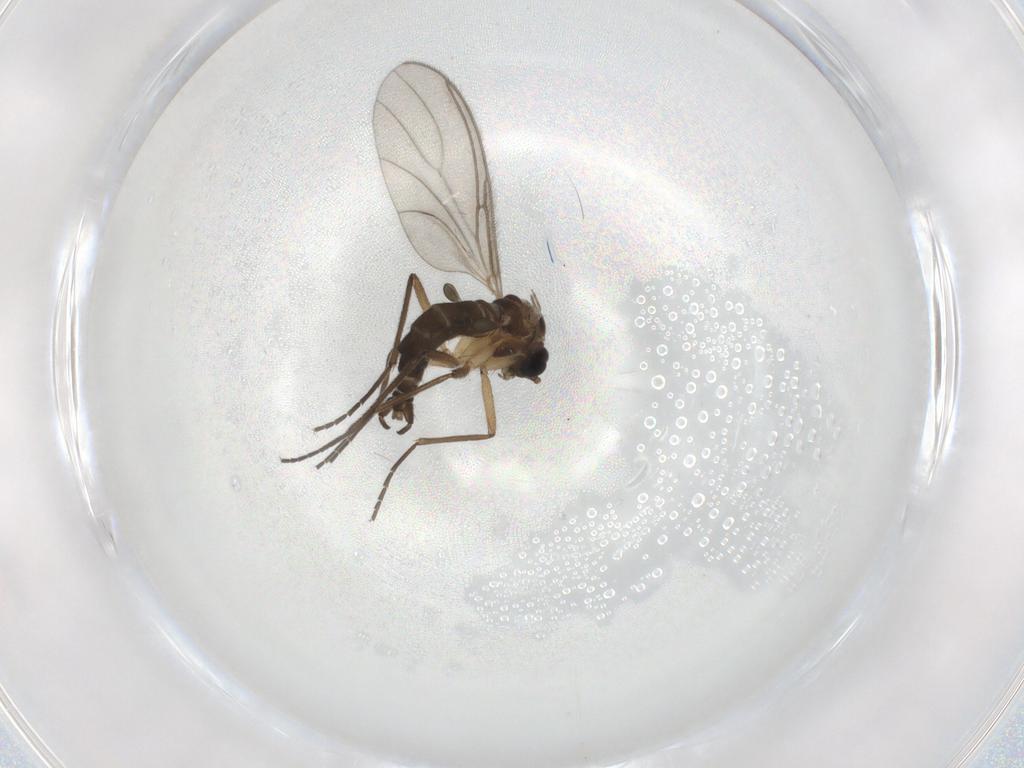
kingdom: Animalia
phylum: Arthropoda
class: Insecta
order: Diptera
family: Sciaridae
